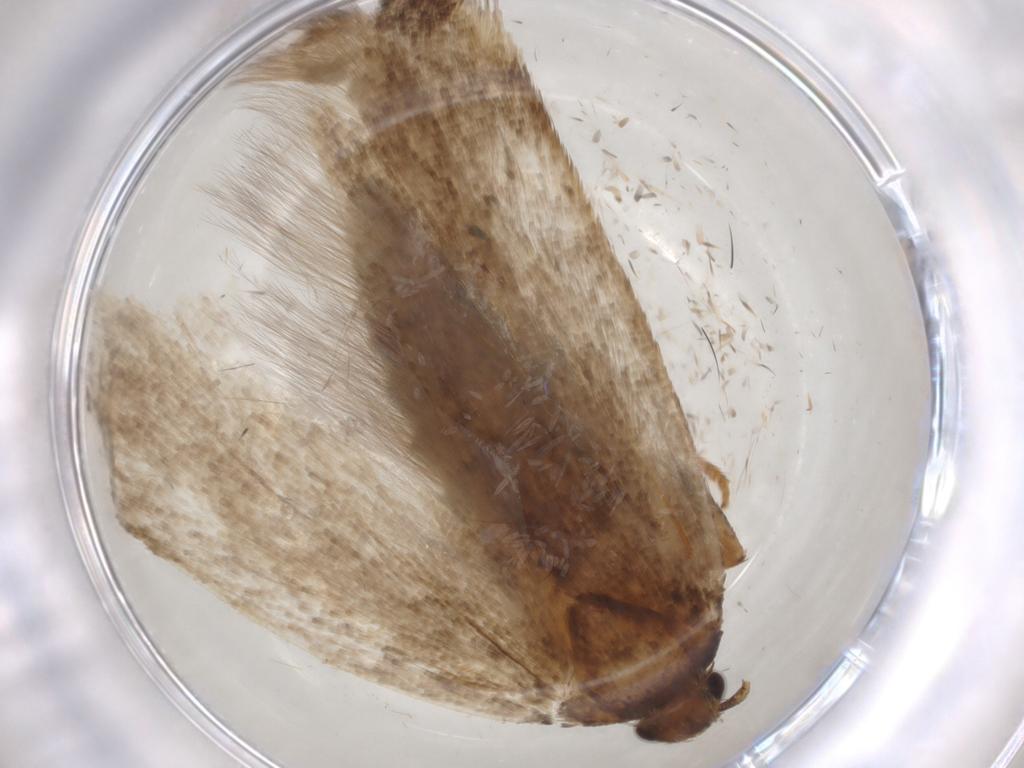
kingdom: Animalia
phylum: Arthropoda
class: Insecta
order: Lepidoptera
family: Gelechiidae
